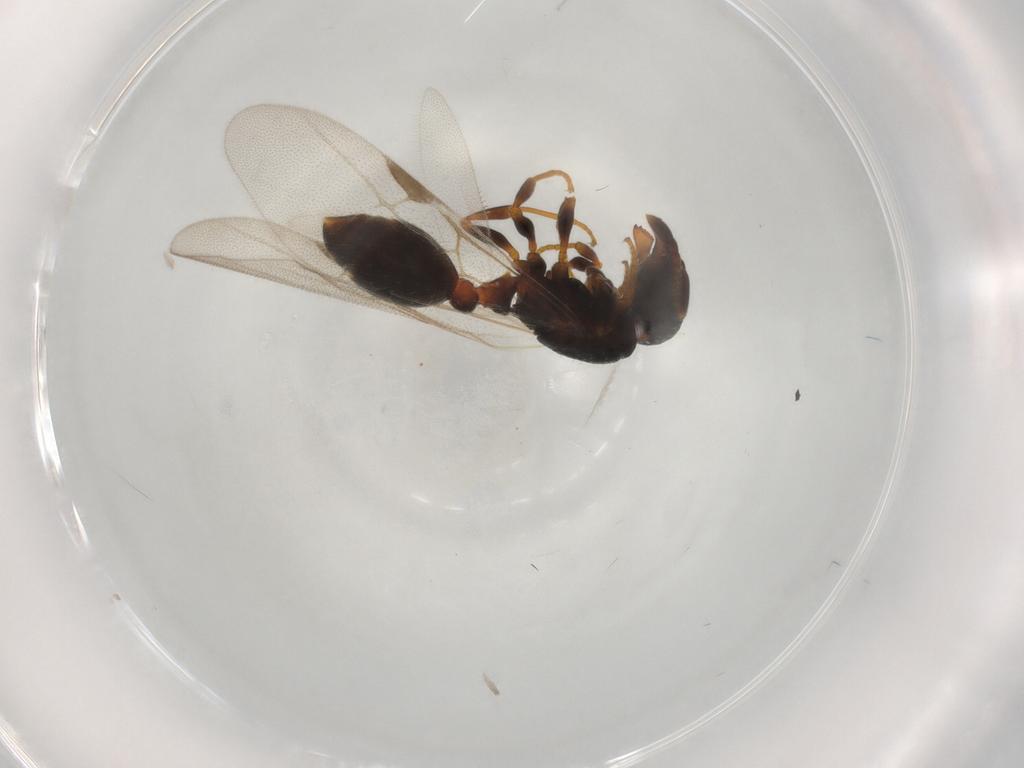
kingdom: Animalia
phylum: Arthropoda
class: Insecta
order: Hymenoptera
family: Formicidae
